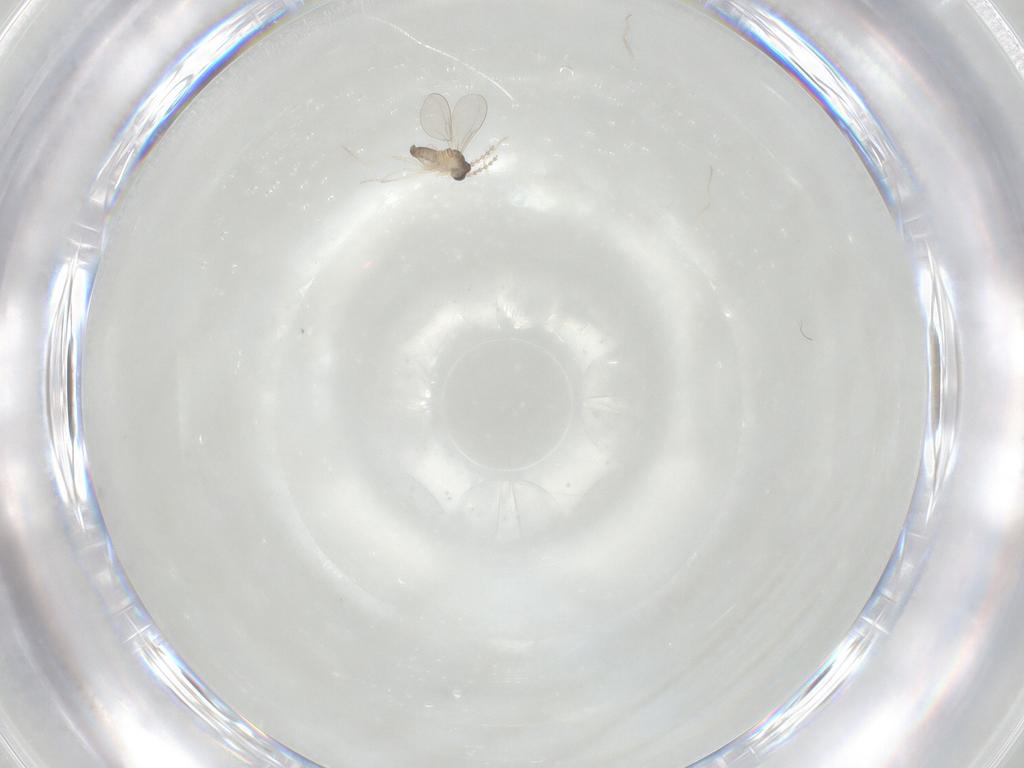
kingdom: Animalia
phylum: Arthropoda
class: Insecta
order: Diptera
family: Cecidomyiidae
